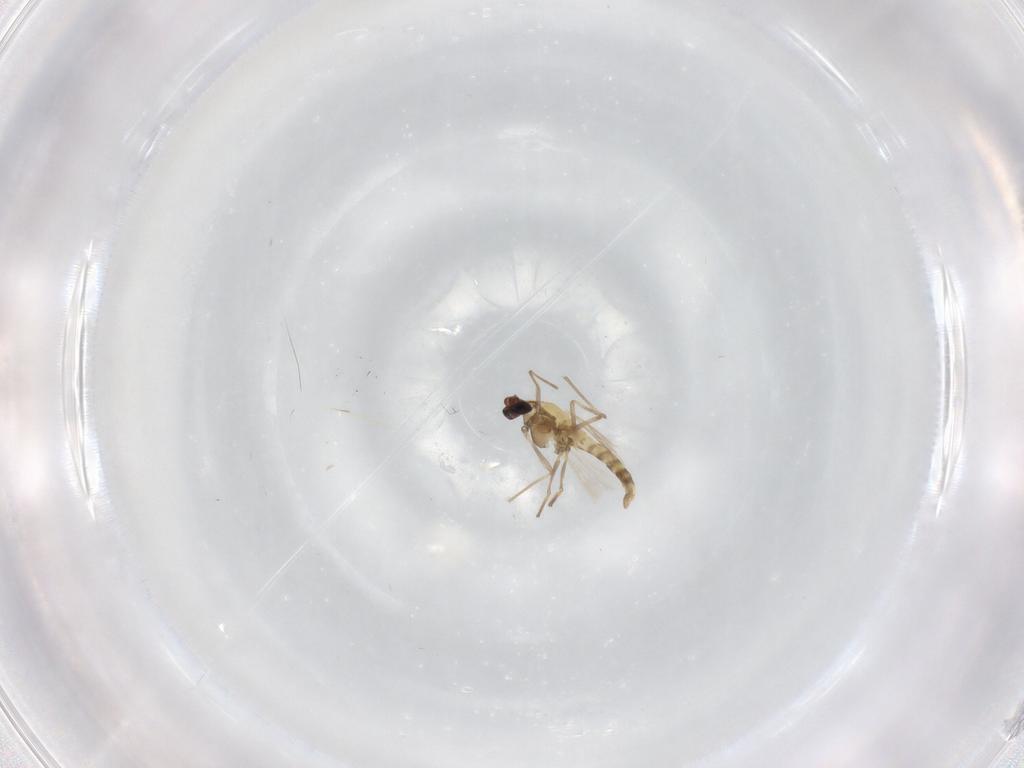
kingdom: Animalia
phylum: Arthropoda
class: Insecta
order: Diptera
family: Chironomidae
